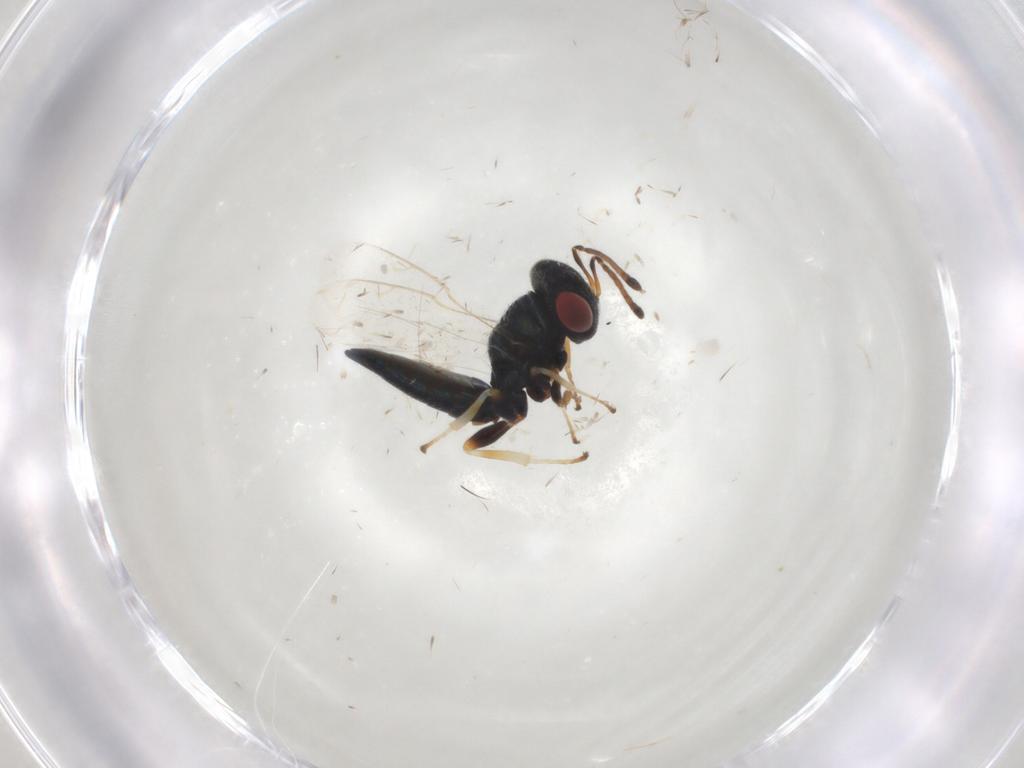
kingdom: Animalia
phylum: Arthropoda
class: Insecta
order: Hymenoptera
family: Pteromalidae
